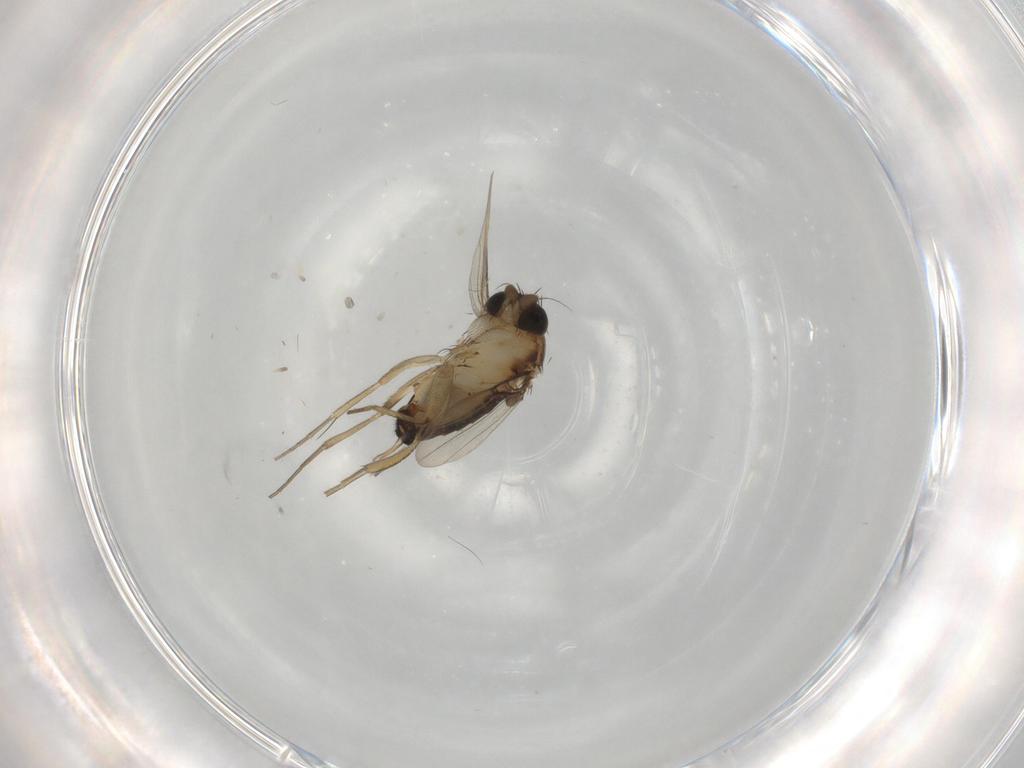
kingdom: Animalia
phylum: Arthropoda
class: Insecta
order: Diptera
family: Phoridae
